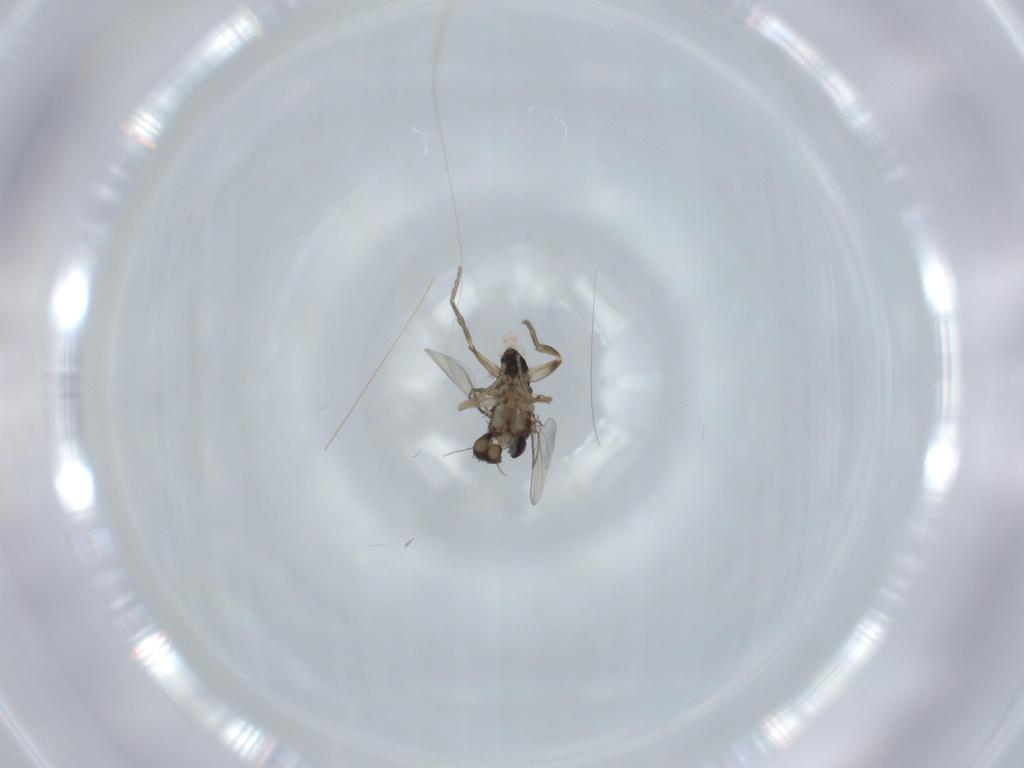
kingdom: Animalia
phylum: Arthropoda
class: Insecta
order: Diptera
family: Phoridae
